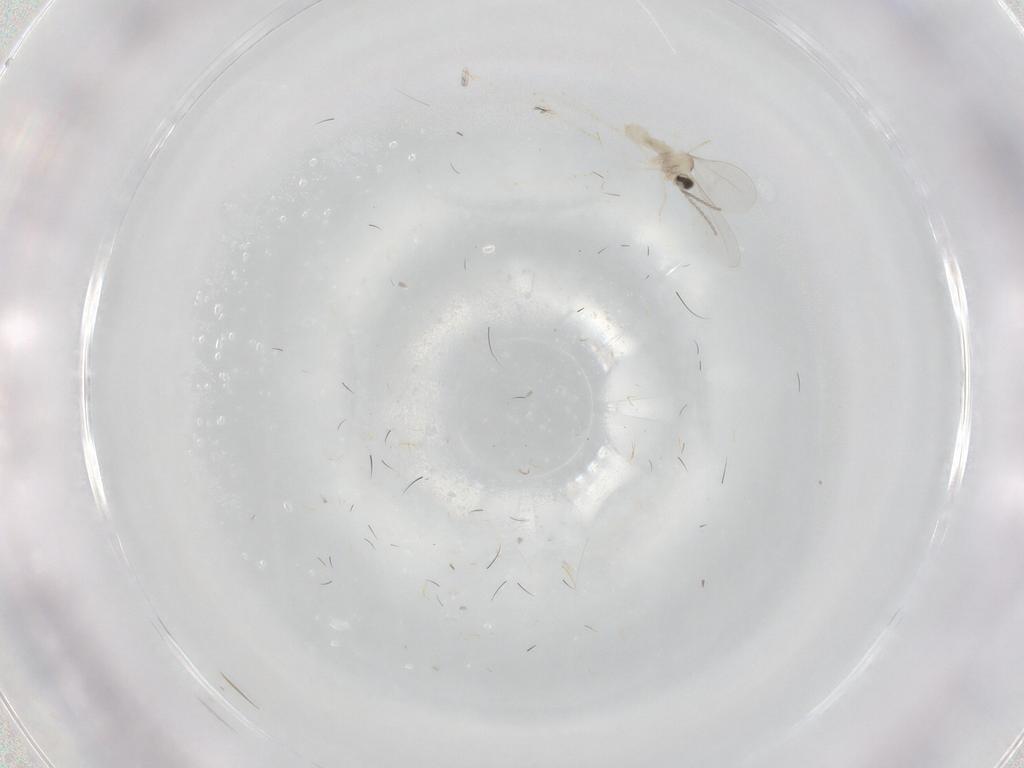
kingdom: Animalia
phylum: Arthropoda
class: Insecta
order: Diptera
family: Cecidomyiidae
